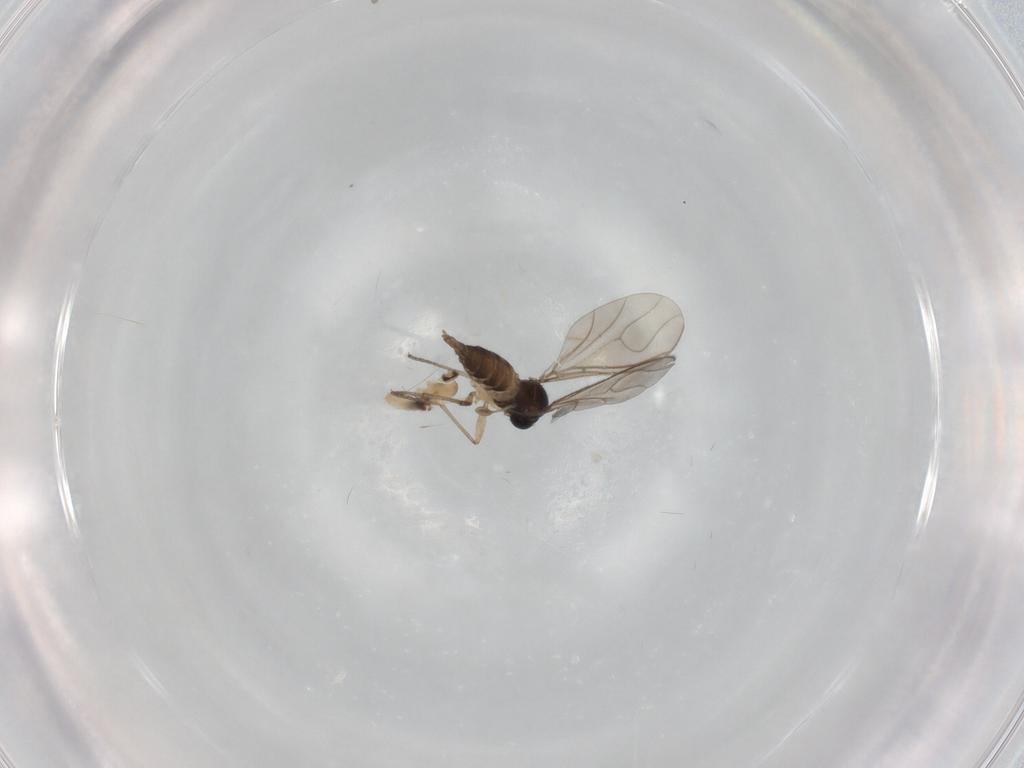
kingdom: Animalia
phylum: Arthropoda
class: Insecta
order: Diptera
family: Sciaridae
